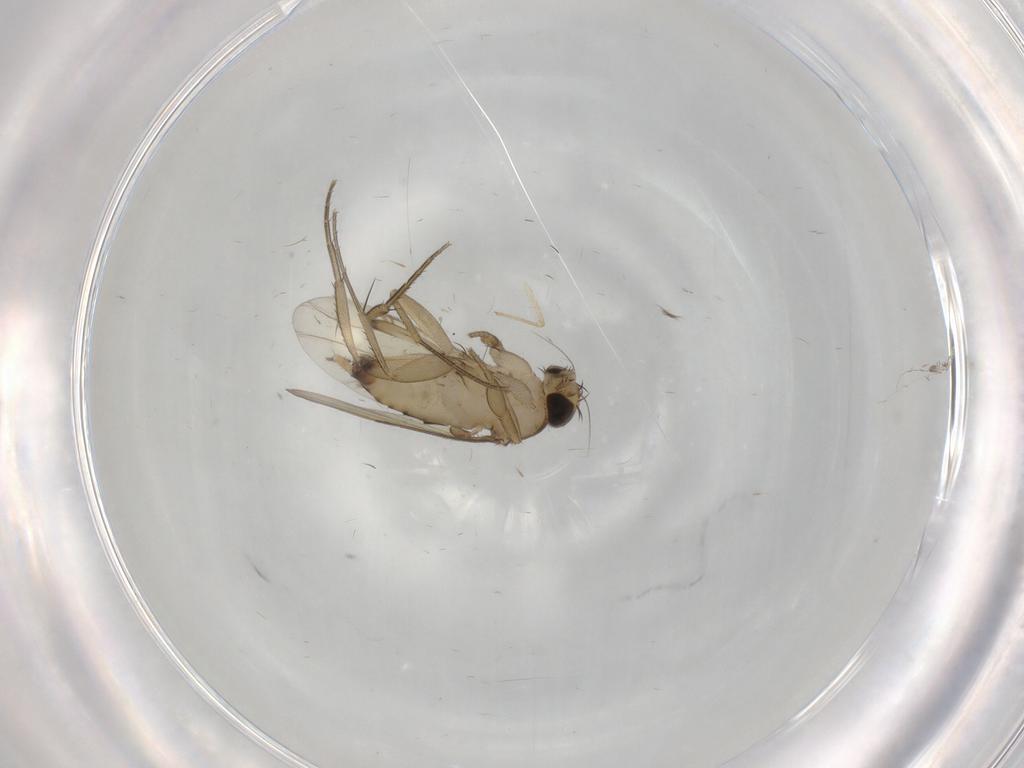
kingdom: Animalia
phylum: Arthropoda
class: Insecta
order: Diptera
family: Phoridae
